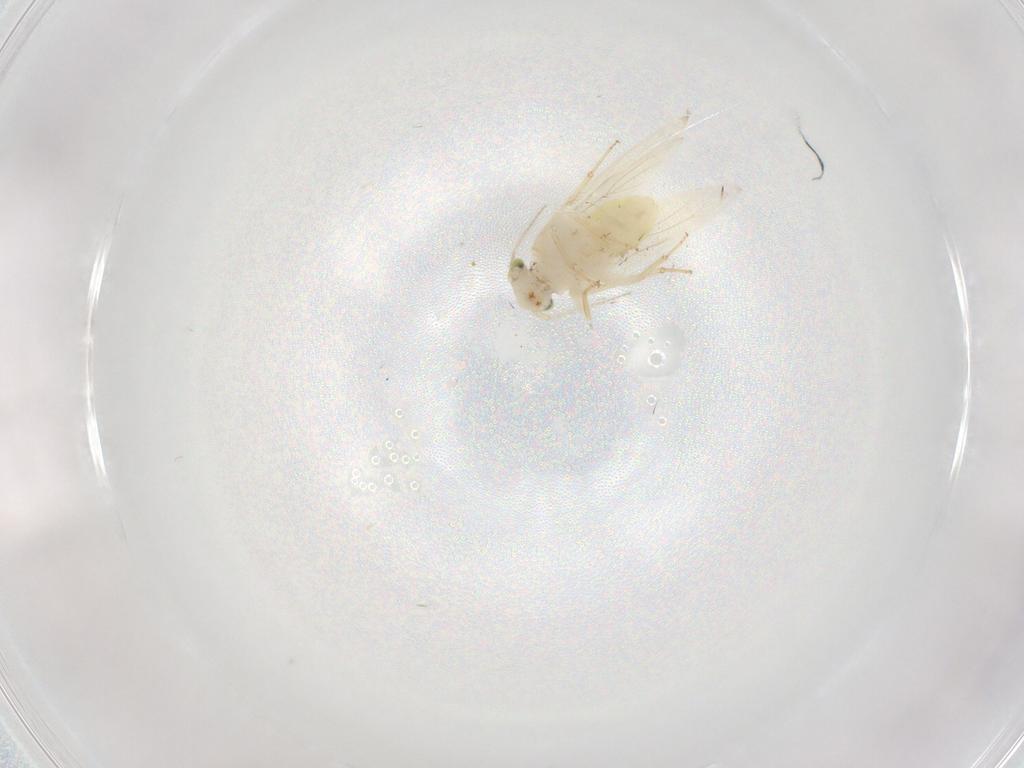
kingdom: Animalia
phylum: Arthropoda
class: Insecta
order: Psocodea
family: Lepidopsocidae
